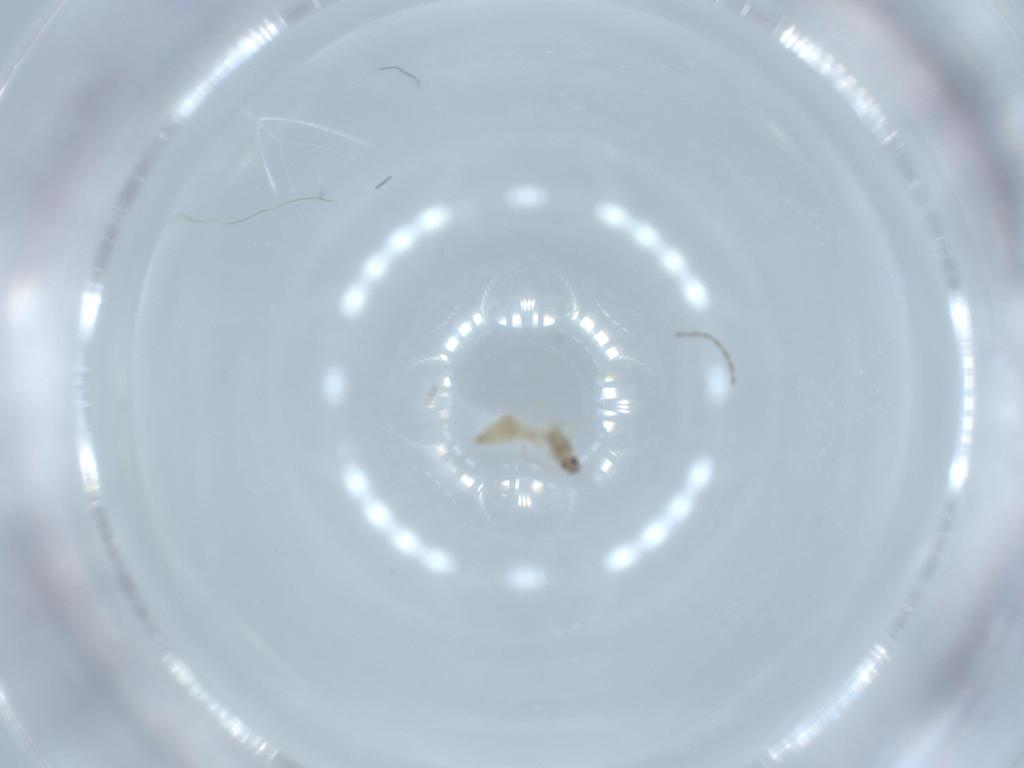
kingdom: Animalia
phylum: Arthropoda
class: Insecta
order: Diptera
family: Cecidomyiidae
